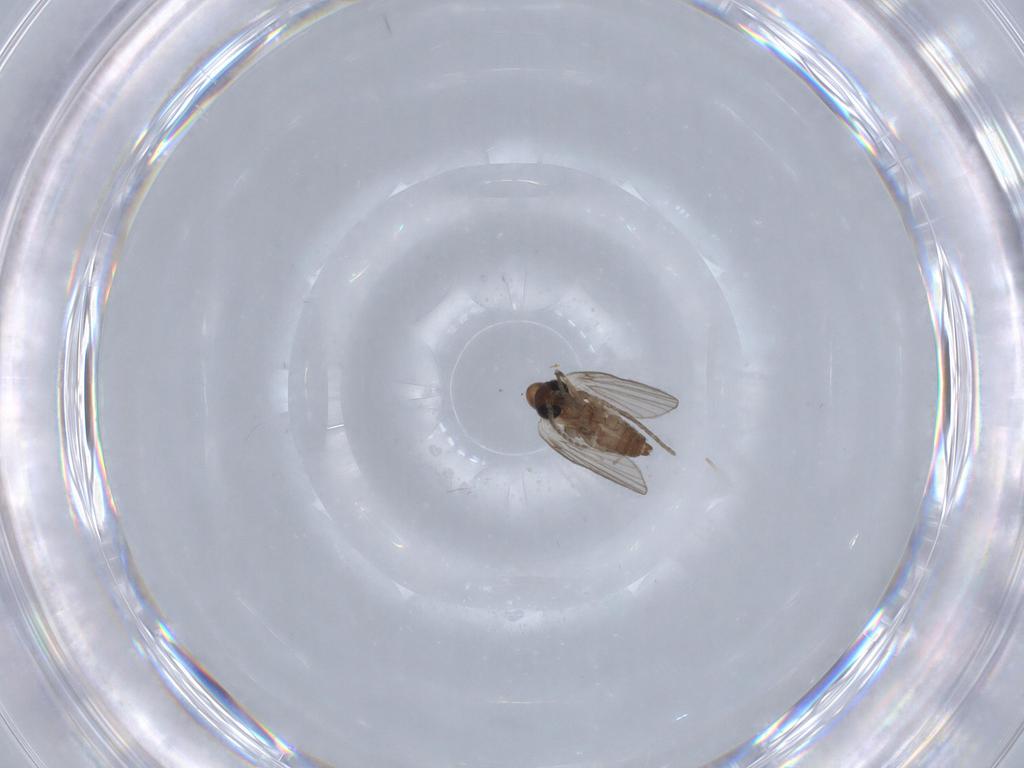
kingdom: Animalia
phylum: Arthropoda
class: Insecta
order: Diptera
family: Psychodidae
